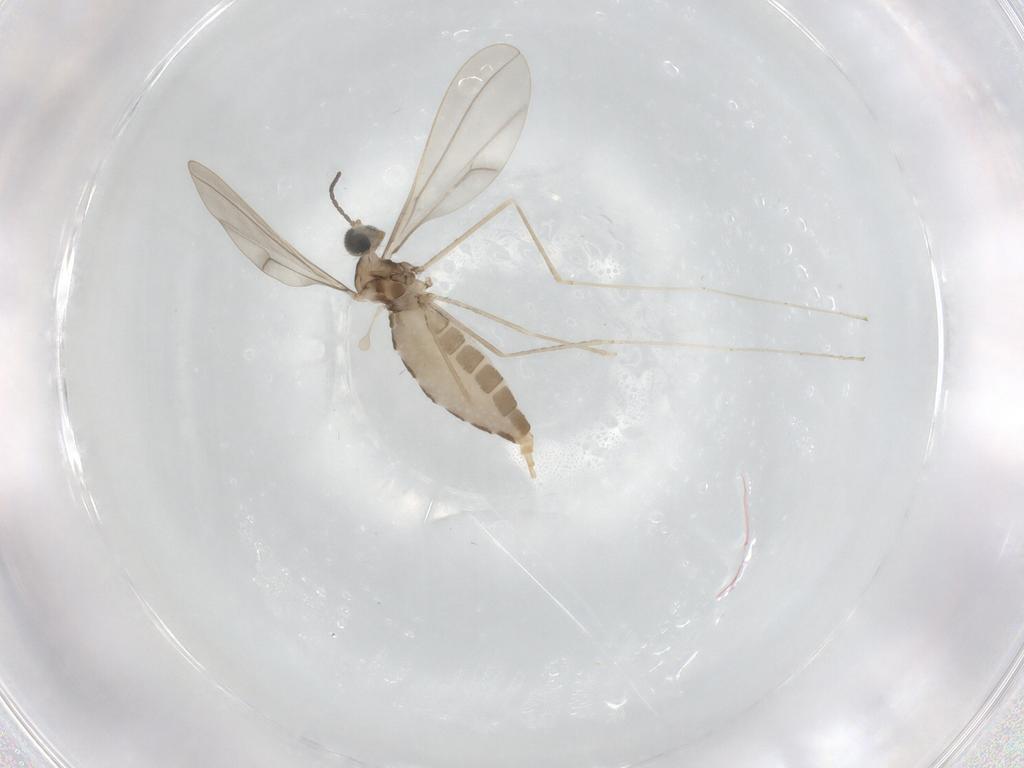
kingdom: Animalia
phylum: Arthropoda
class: Insecta
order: Diptera
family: Cecidomyiidae
